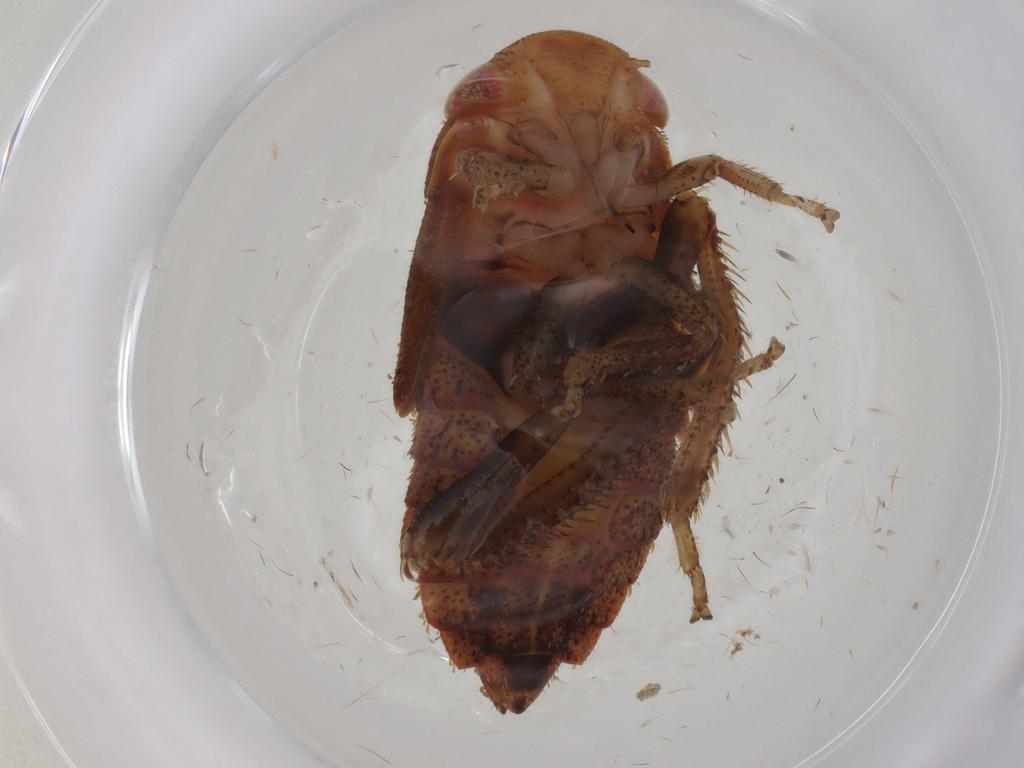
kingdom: Animalia
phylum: Arthropoda
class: Insecta
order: Hemiptera
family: Cicadellidae
